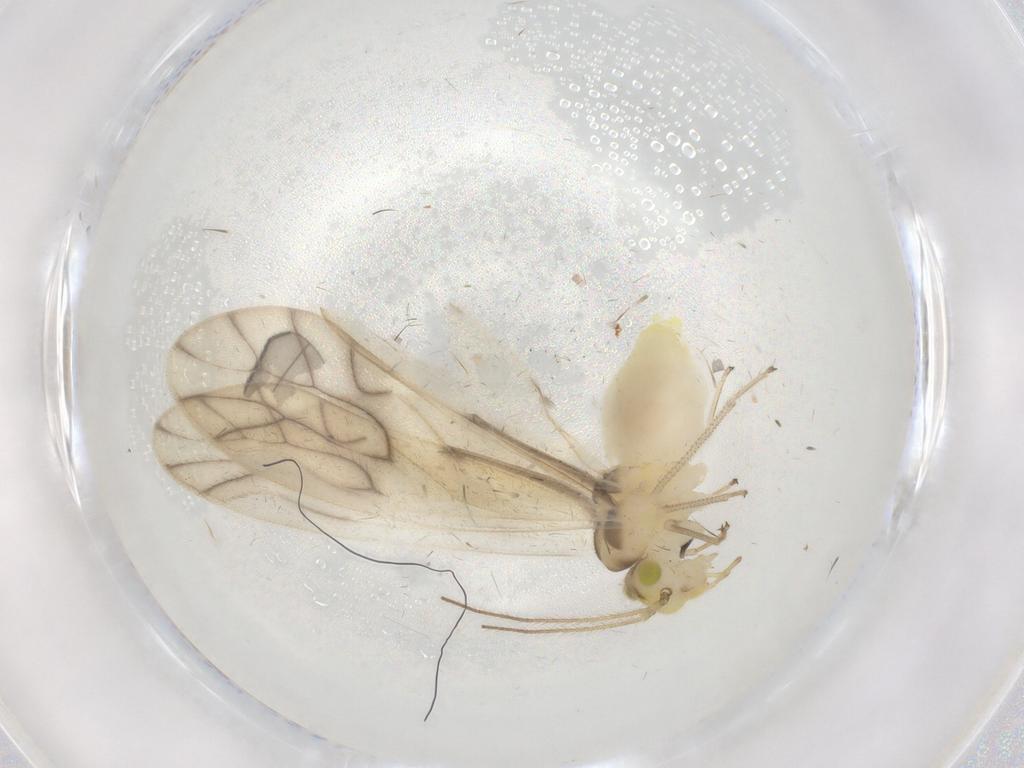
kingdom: Animalia
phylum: Arthropoda
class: Insecta
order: Psocodea
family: Caeciliusidae
